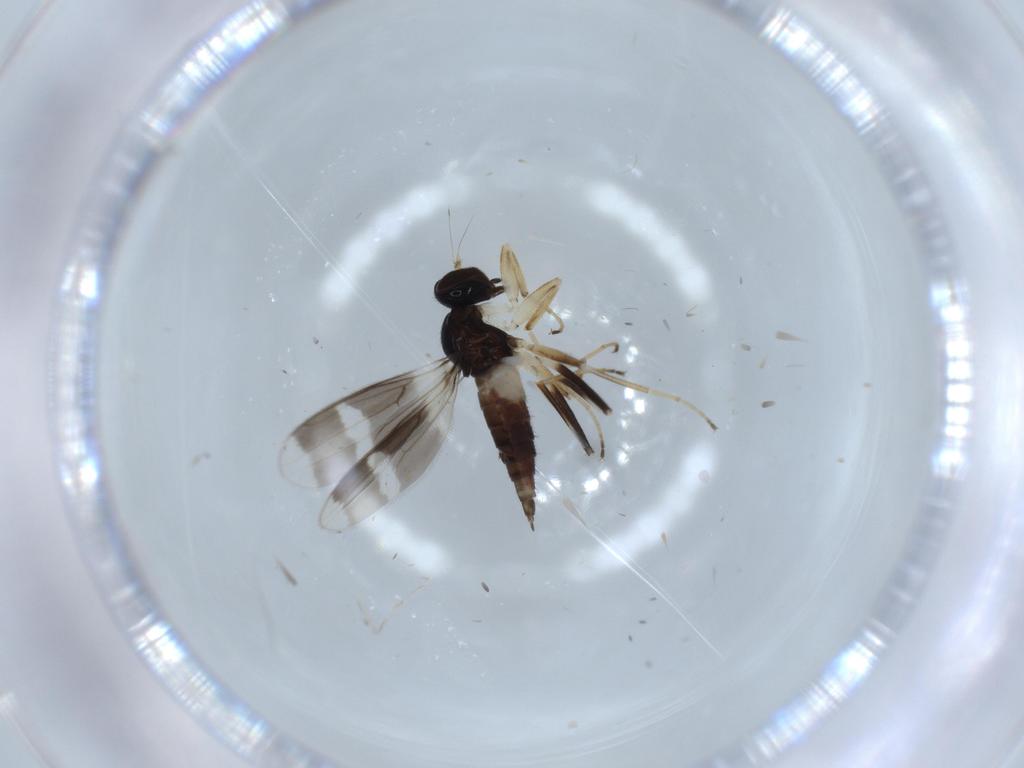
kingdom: Animalia
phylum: Arthropoda
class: Insecta
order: Diptera
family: Hybotidae
